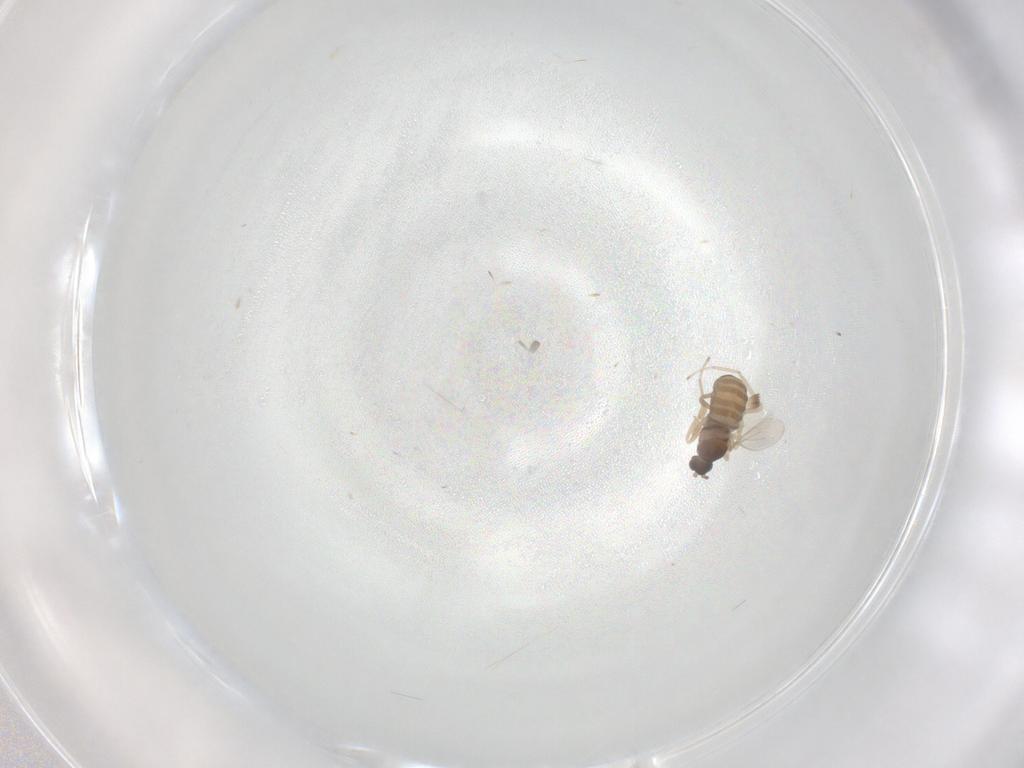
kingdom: Animalia
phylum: Arthropoda
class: Insecta
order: Diptera
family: Cecidomyiidae
